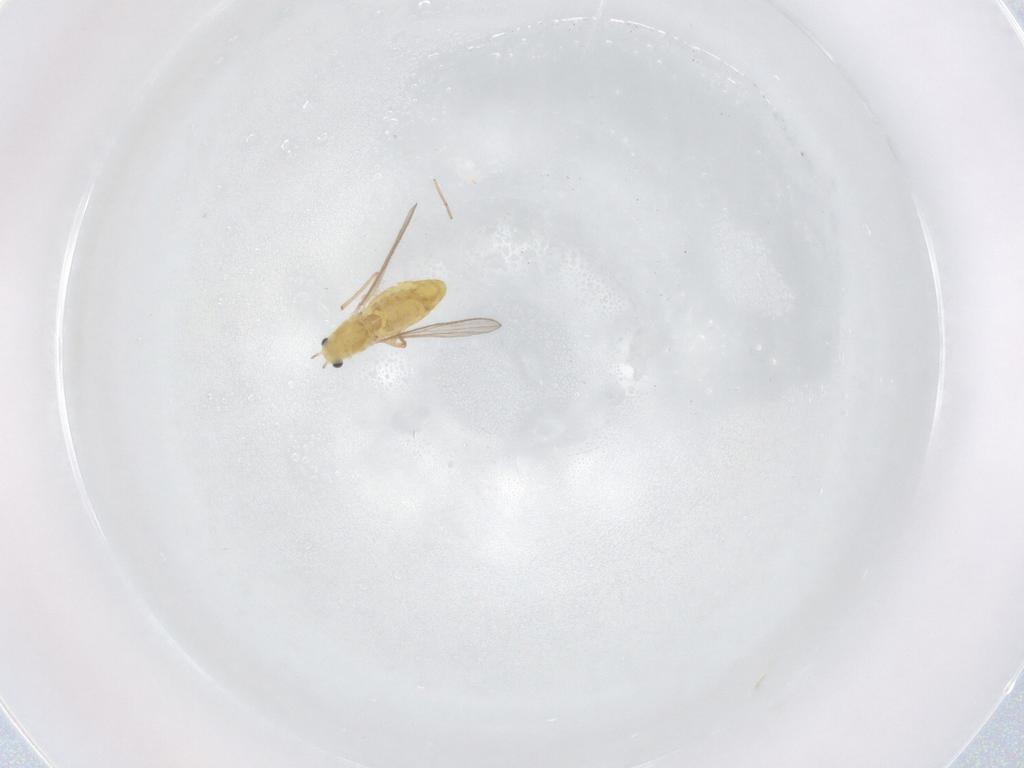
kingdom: Animalia
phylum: Arthropoda
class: Insecta
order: Diptera
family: Chironomidae
